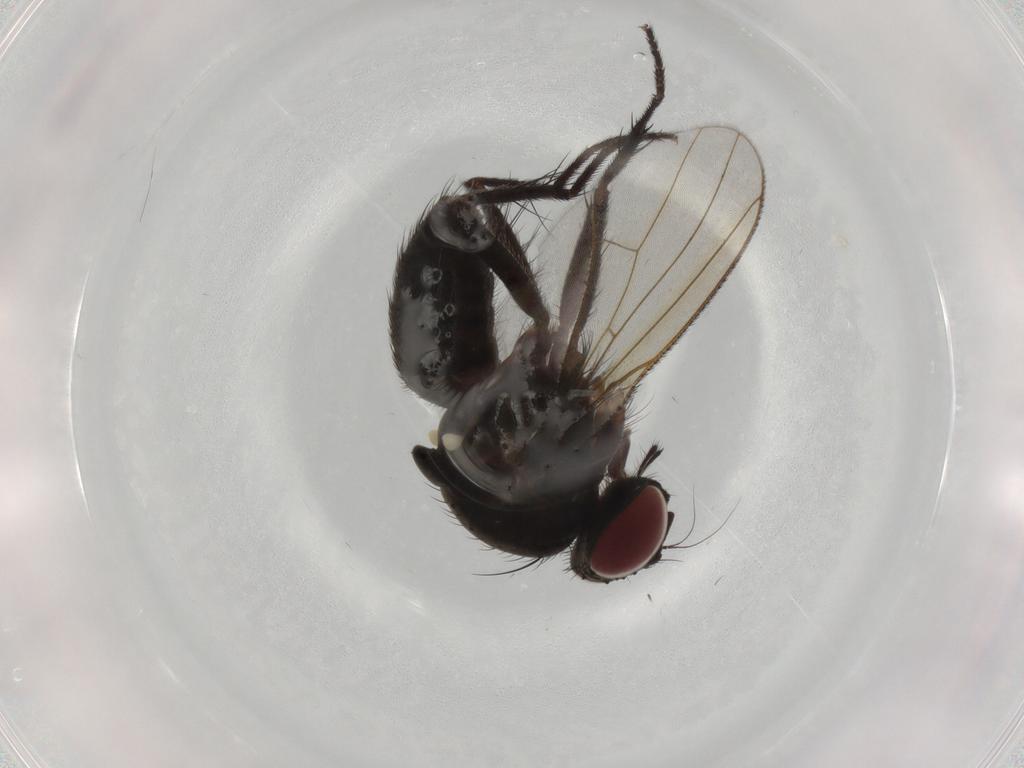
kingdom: Animalia
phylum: Arthropoda
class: Insecta
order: Diptera
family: Muscidae
